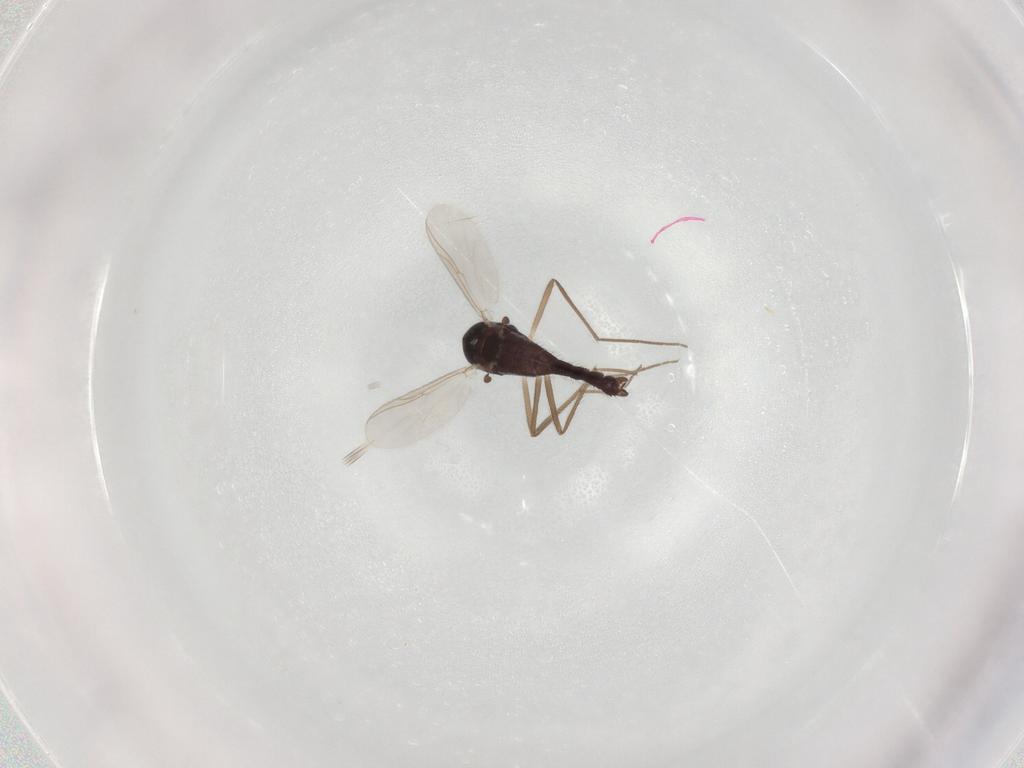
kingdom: Animalia
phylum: Arthropoda
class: Insecta
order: Diptera
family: Chironomidae
